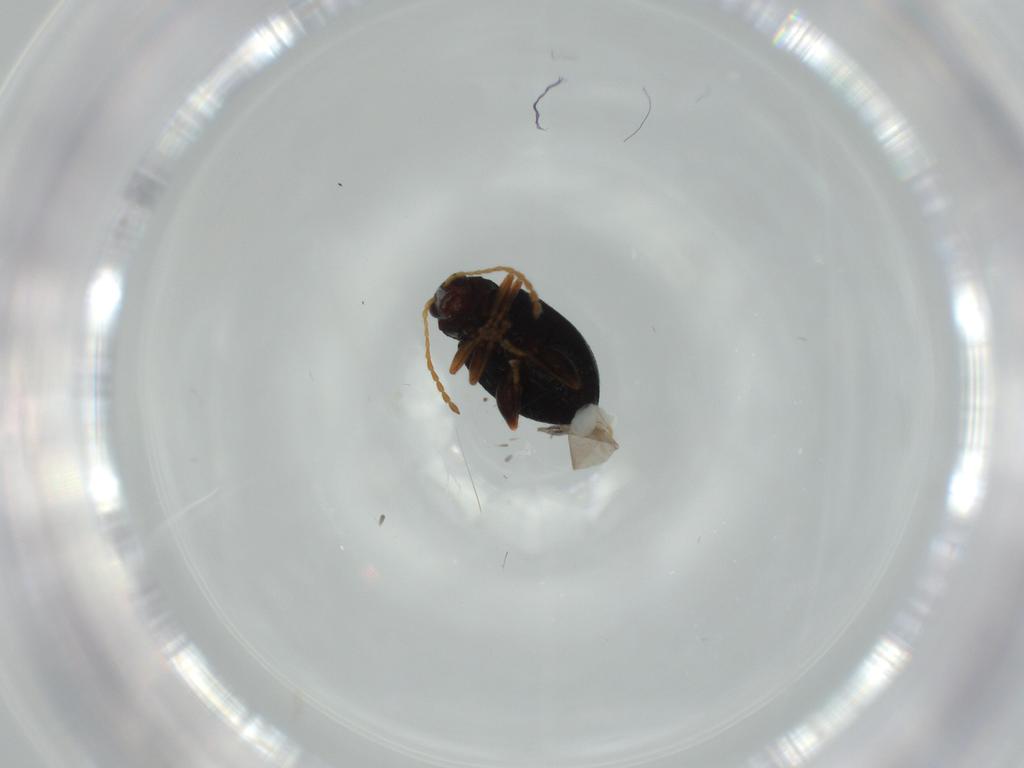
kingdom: Animalia
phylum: Arthropoda
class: Insecta
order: Coleoptera
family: Chrysomelidae
